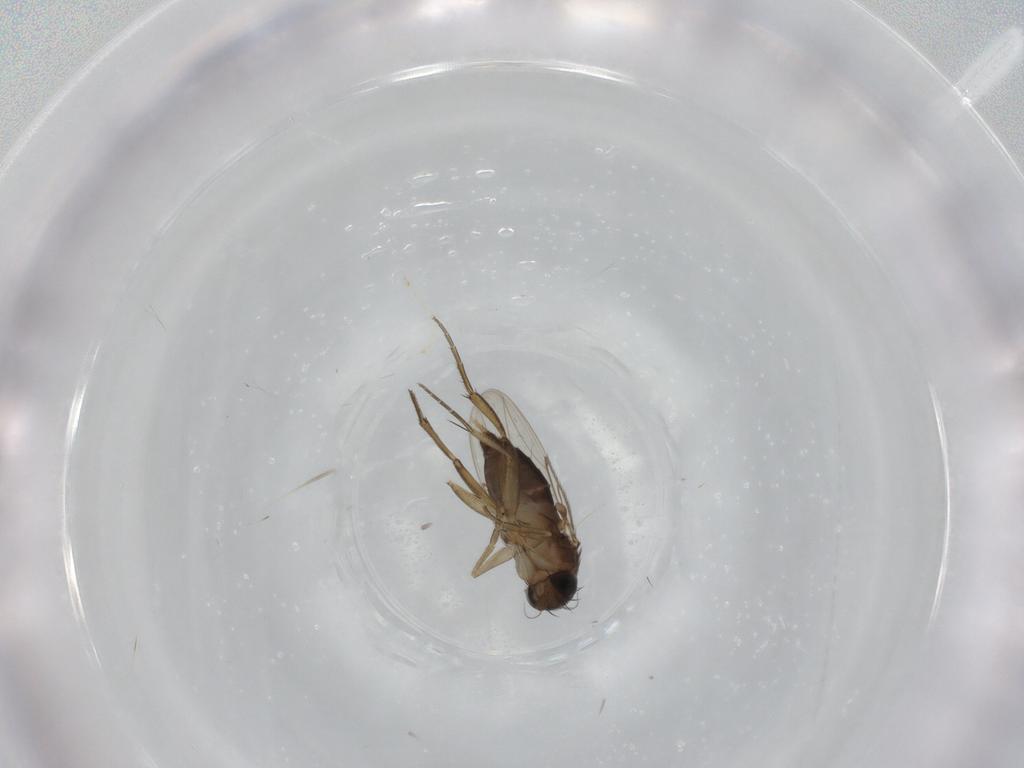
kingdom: Animalia
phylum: Arthropoda
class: Insecta
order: Diptera
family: Phoridae
